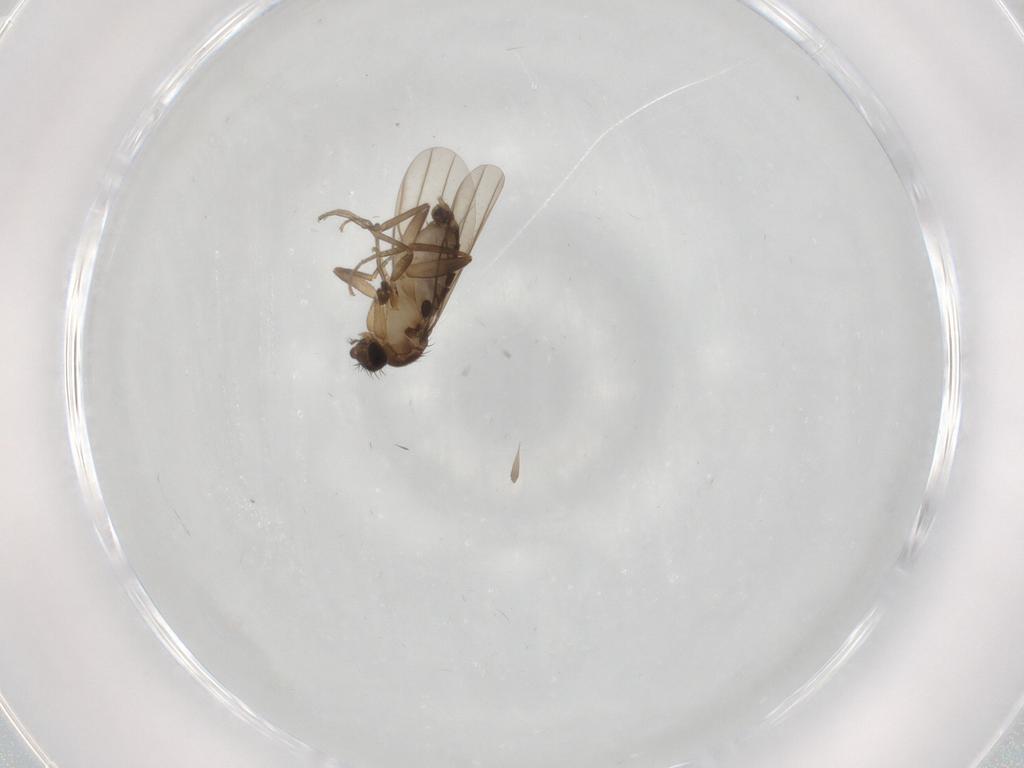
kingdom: Animalia
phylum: Arthropoda
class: Insecta
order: Diptera
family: Phoridae
